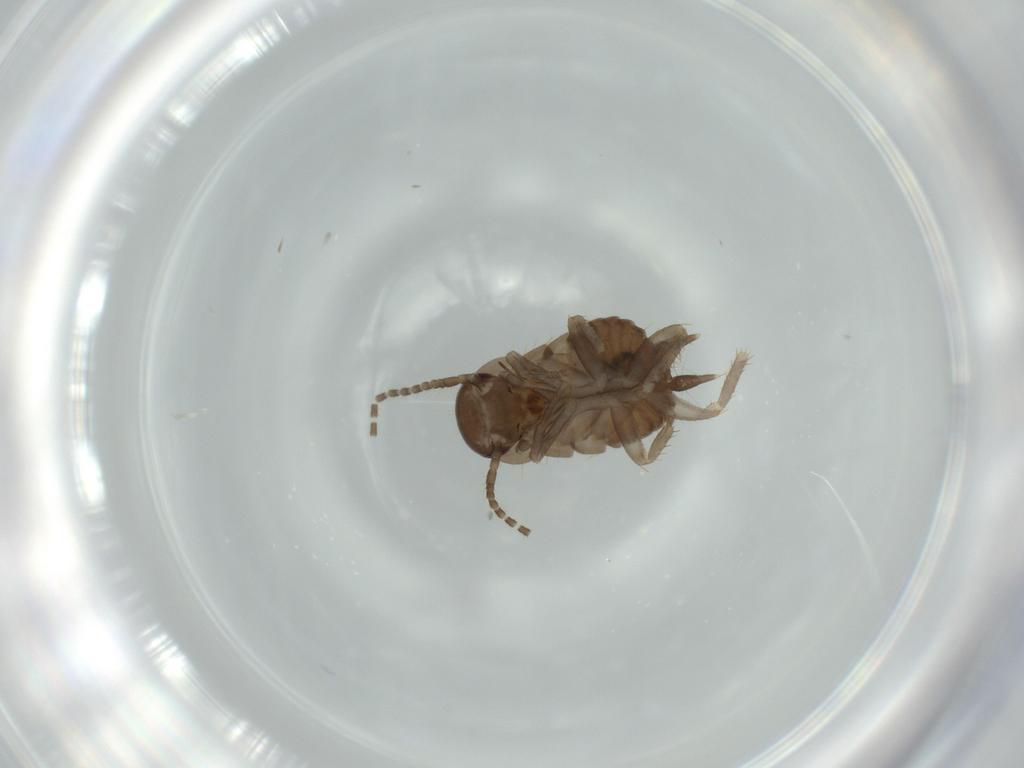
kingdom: Animalia
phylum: Arthropoda
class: Insecta
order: Blattodea
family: Ectobiidae
